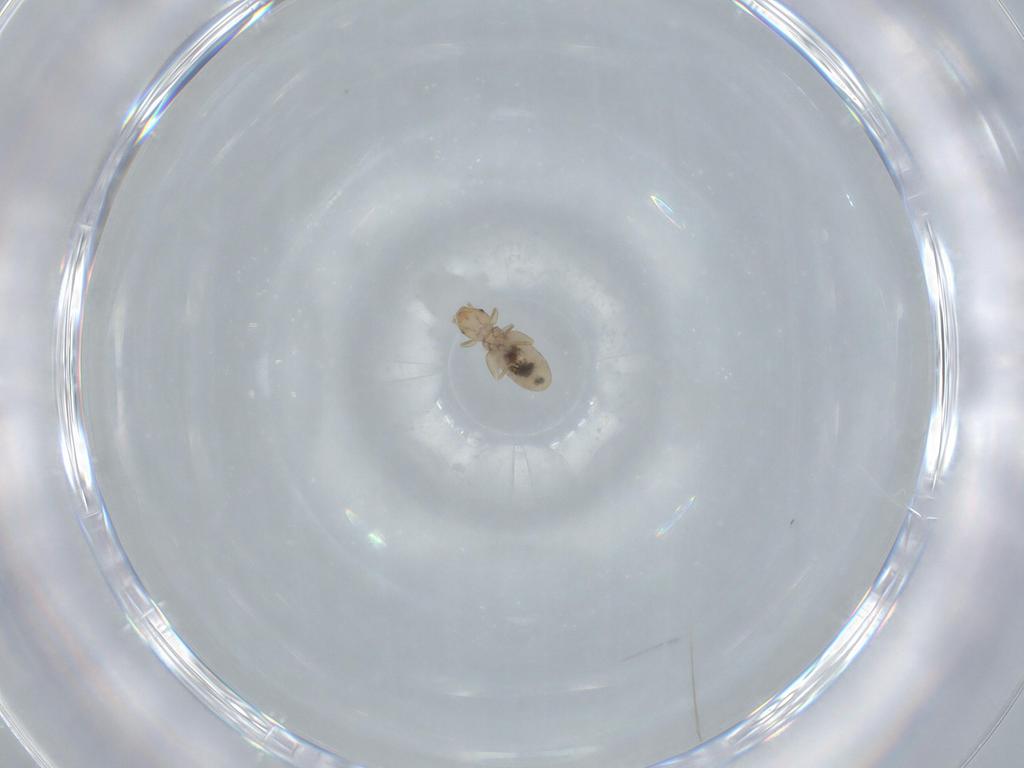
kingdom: Animalia
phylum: Arthropoda
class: Insecta
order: Psocodea
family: Liposcelididae
